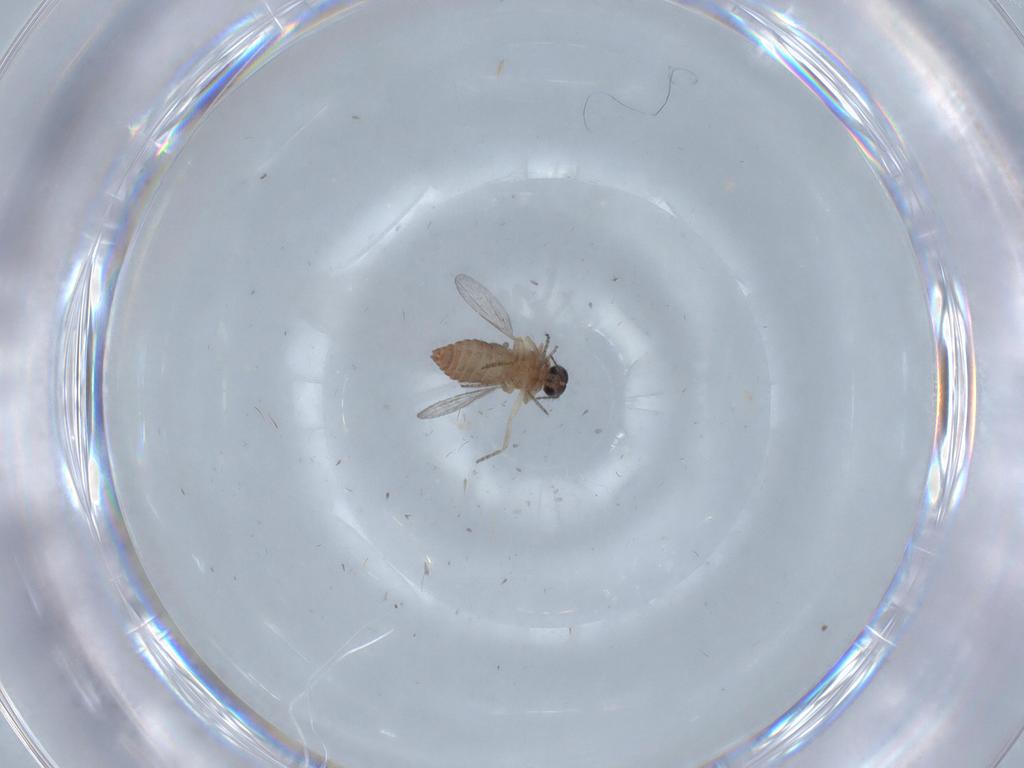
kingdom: Animalia
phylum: Arthropoda
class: Insecta
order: Diptera
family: Ceratopogonidae
